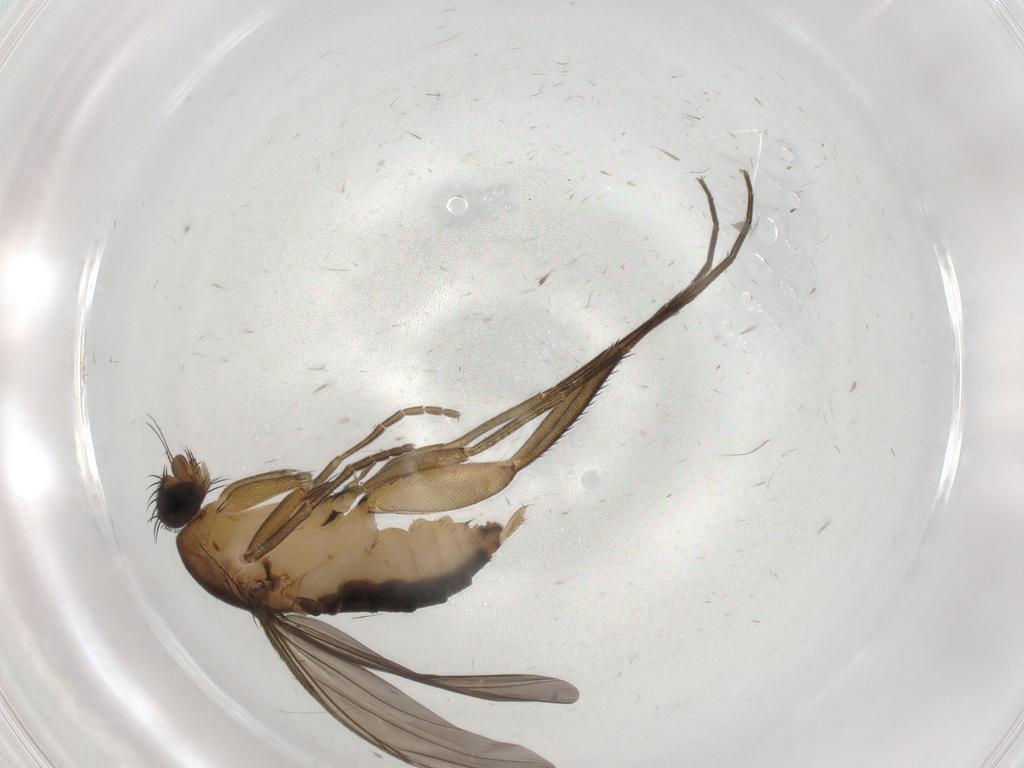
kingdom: Animalia
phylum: Arthropoda
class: Insecta
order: Diptera
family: Phoridae
